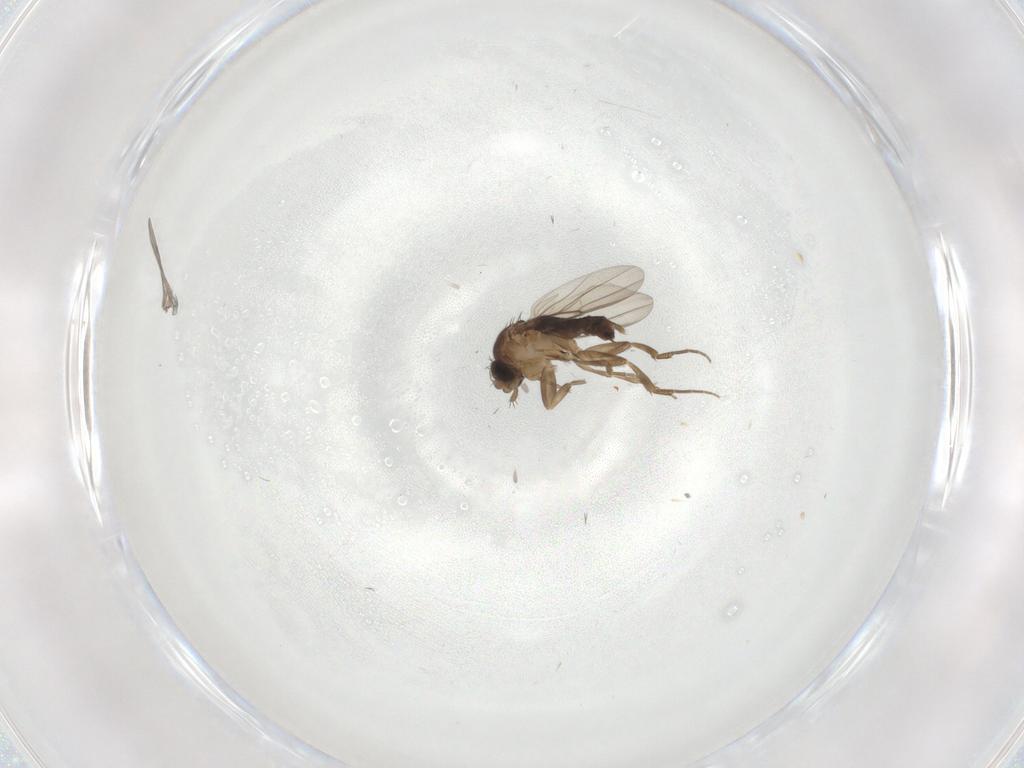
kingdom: Animalia
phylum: Arthropoda
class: Insecta
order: Diptera
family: Phoridae
